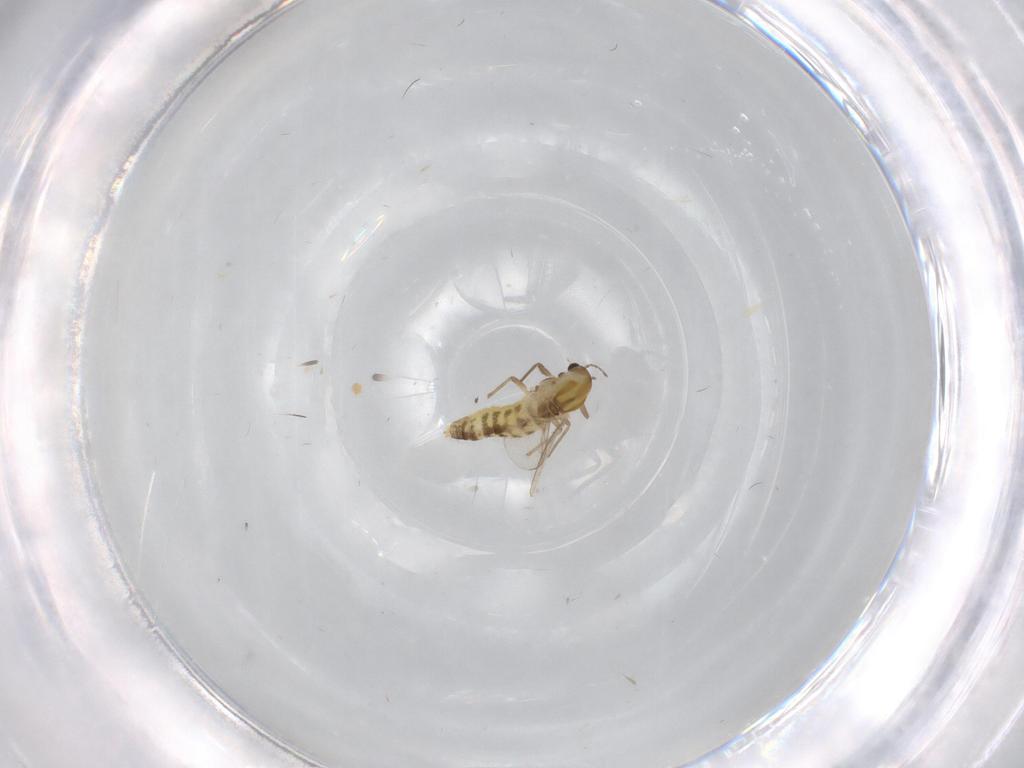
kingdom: Animalia
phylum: Arthropoda
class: Insecta
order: Diptera
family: Chironomidae
